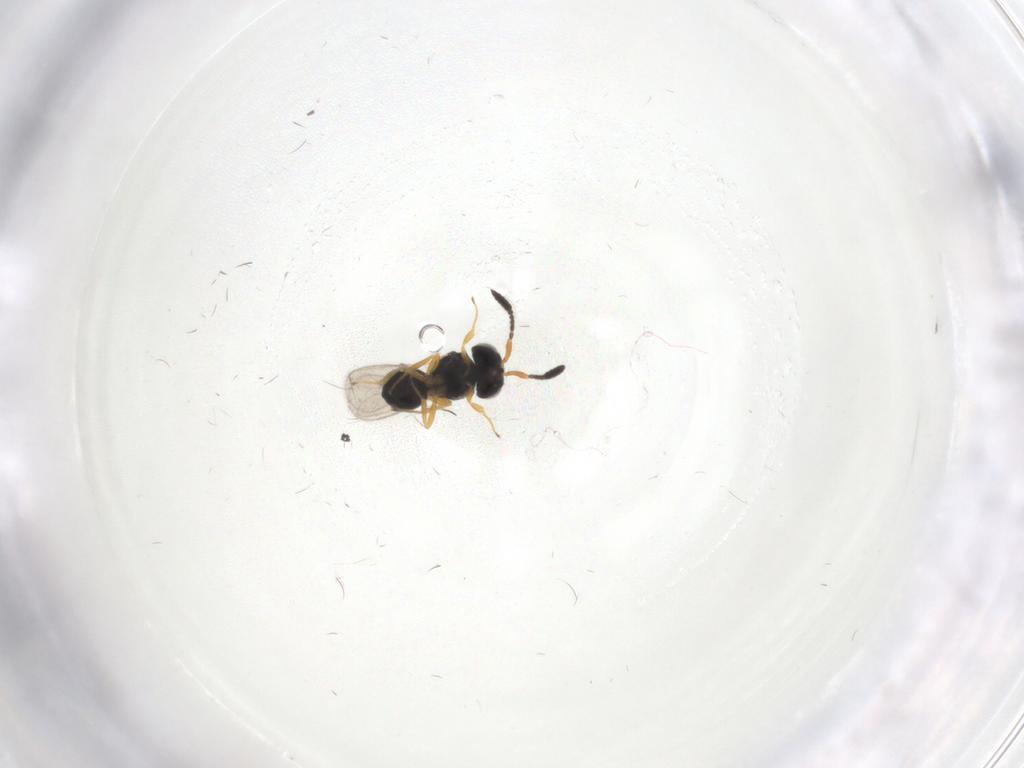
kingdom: Animalia
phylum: Arthropoda
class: Insecta
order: Hymenoptera
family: Scelionidae
